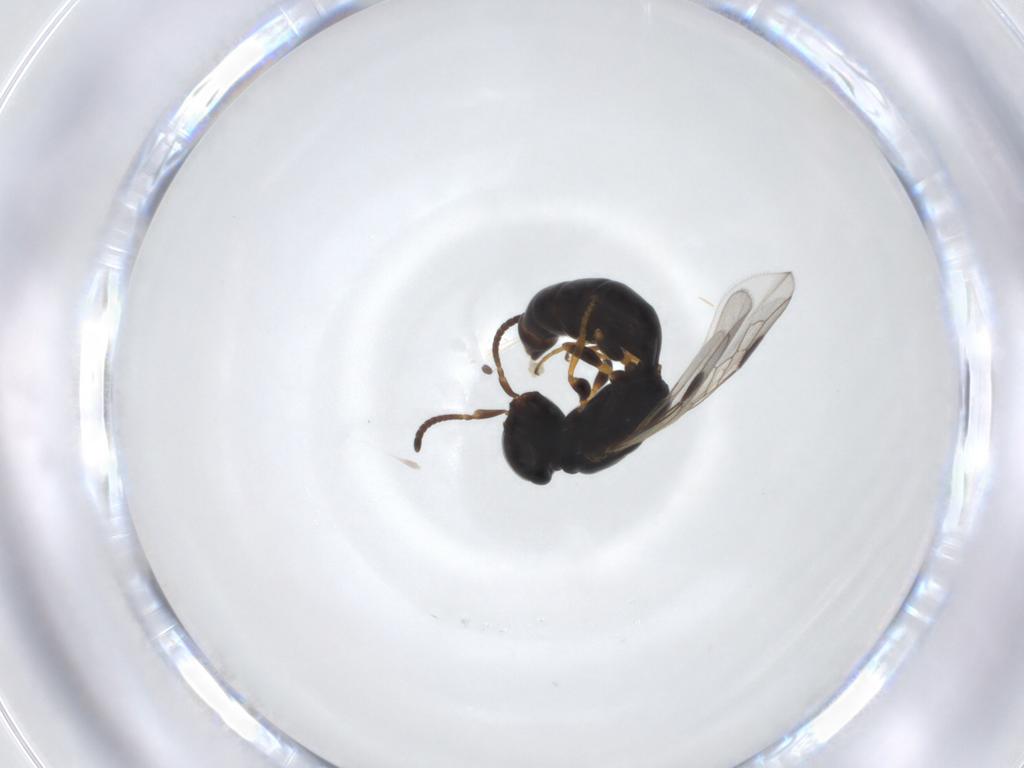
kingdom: Animalia
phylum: Arthropoda
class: Insecta
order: Hymenoptera
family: Crabronidae
